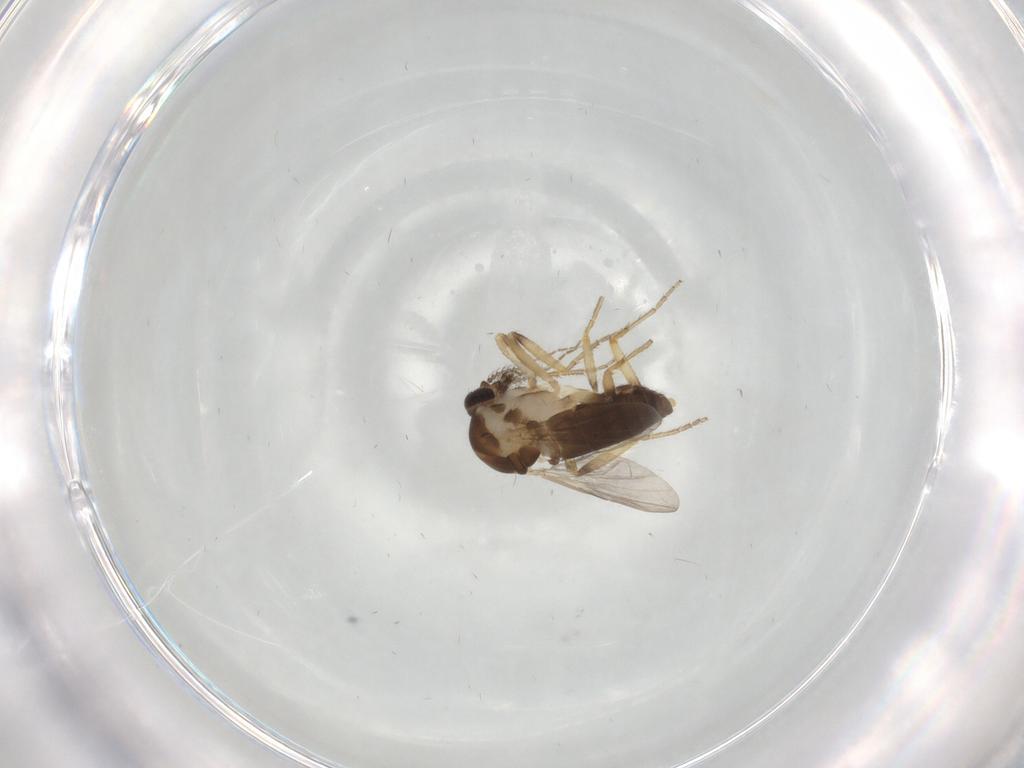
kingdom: Animalia
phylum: Arthropoda
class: Insecta
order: Diptera
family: Ceratopogonidae
